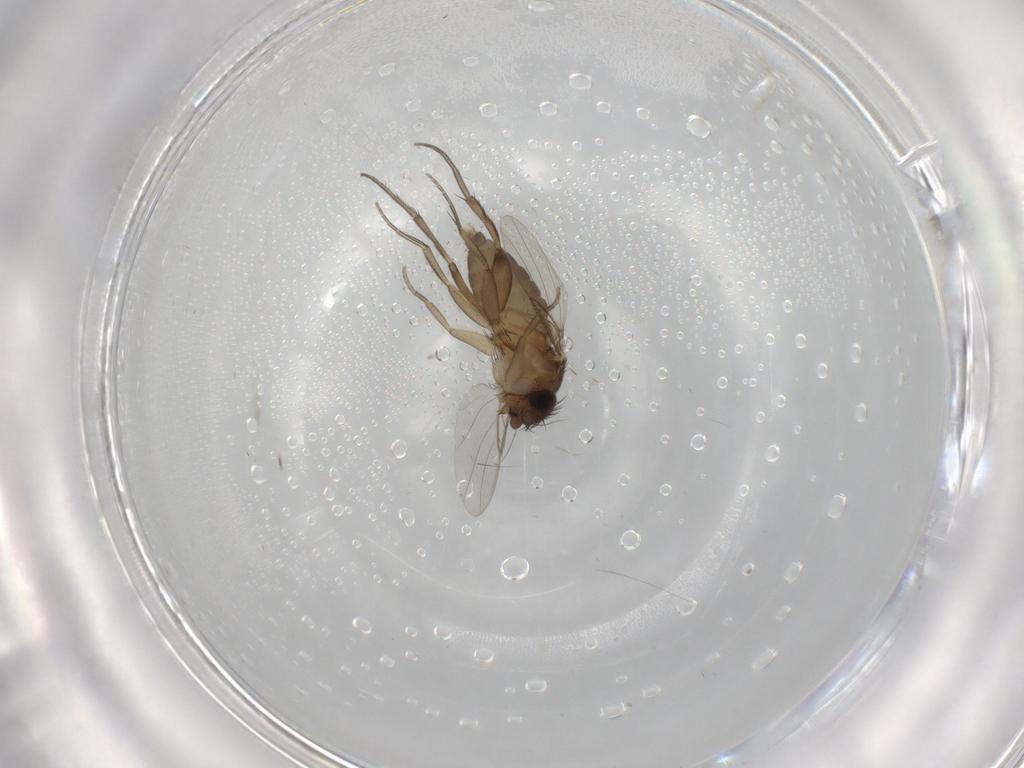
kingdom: Animalia
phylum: Arthropoda
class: Insecta
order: Diptera
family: Phoridae
